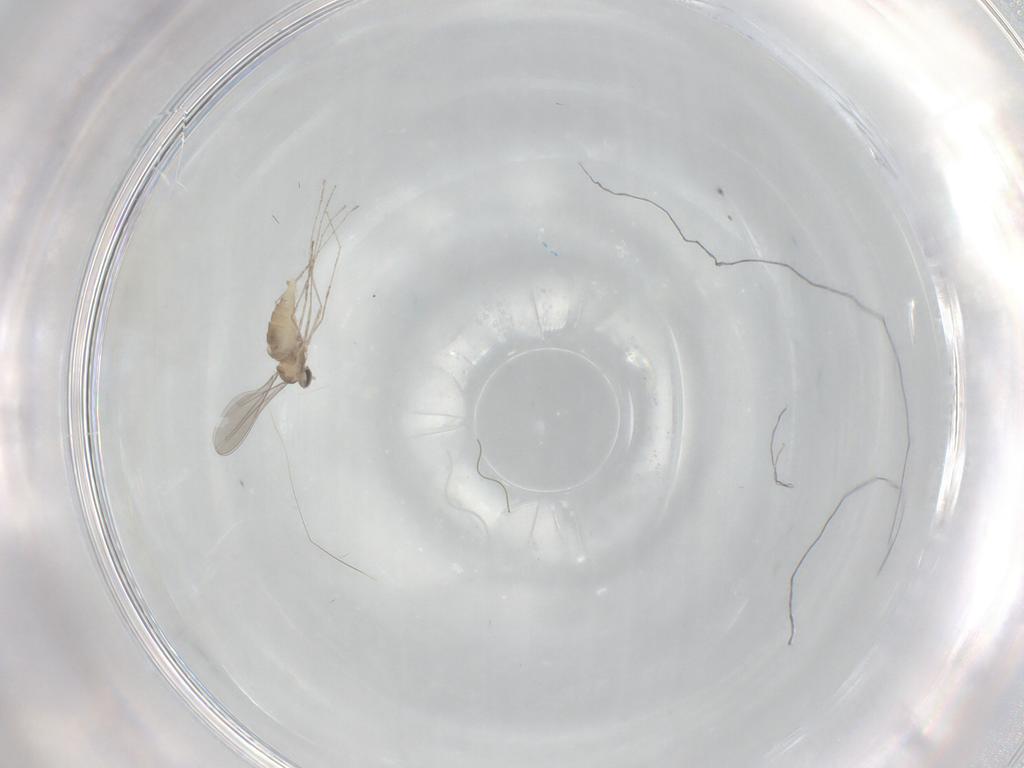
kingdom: Animalia
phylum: Arthropoda
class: Insecta
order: Diptera
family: Cecidomyiidae
